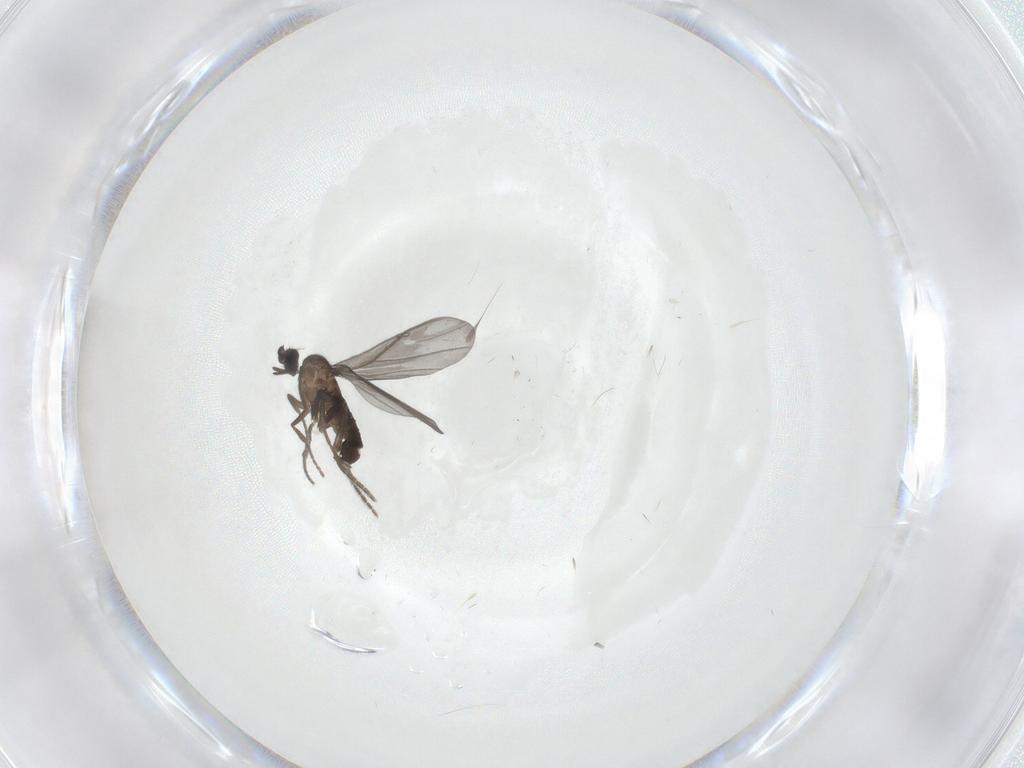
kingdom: Animalia
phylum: Arthropoda
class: Insecta
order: Diptera
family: Phoridae
